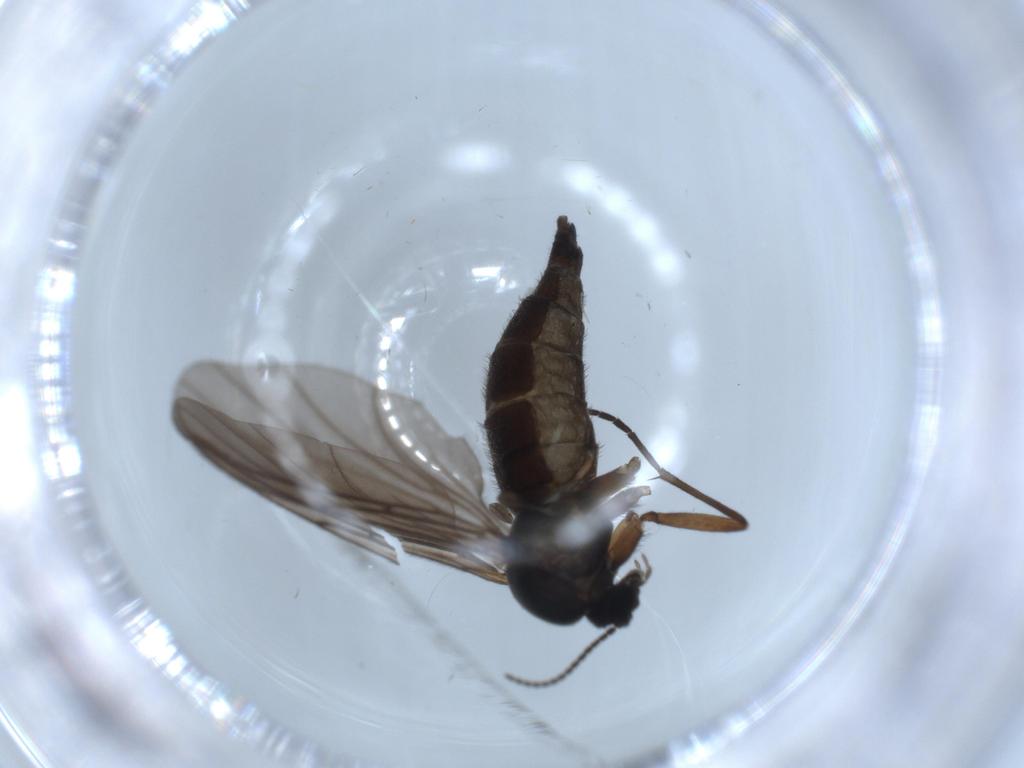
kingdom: Animalia
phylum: Arthropoda
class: Insecta
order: Diptera
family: Sciaridae
